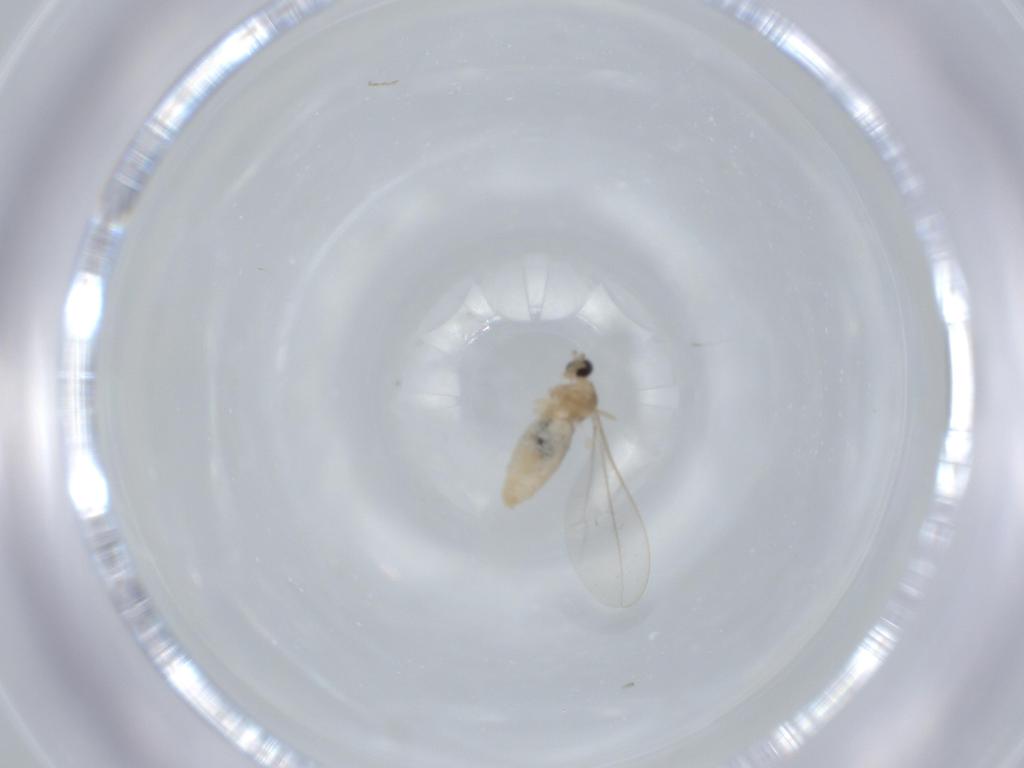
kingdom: Animalia
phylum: Arthropoda
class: Insecta
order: Diptera
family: Cecidomyiidae
